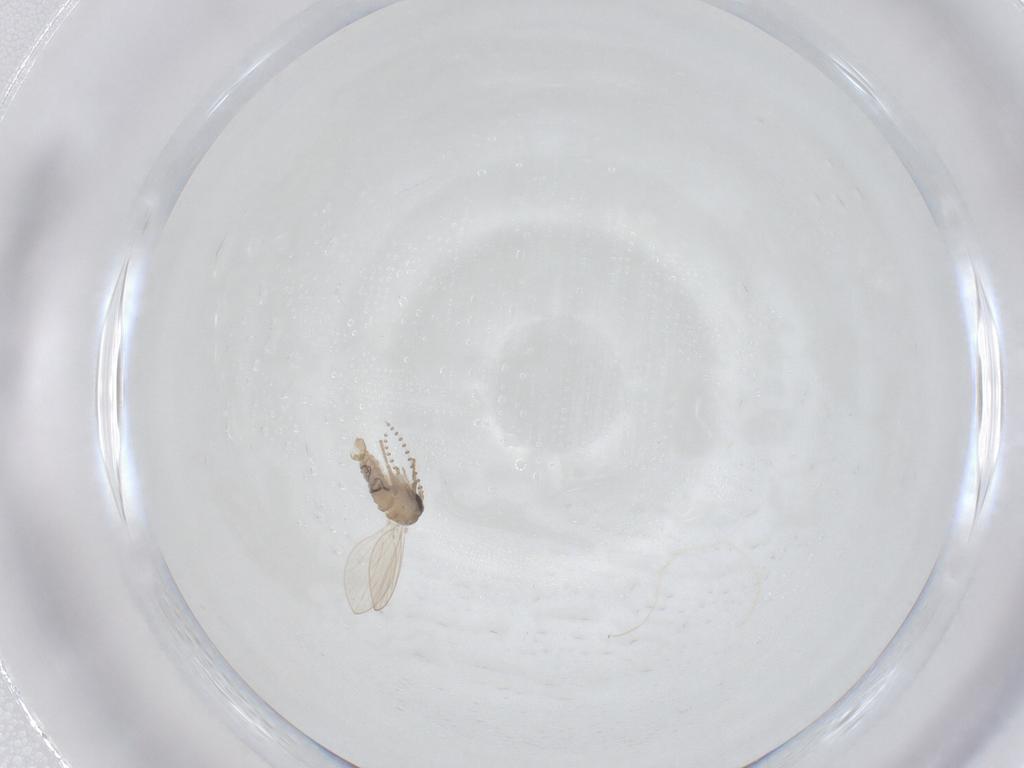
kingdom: Animalia
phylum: Arthropoda
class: Insecta
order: Diptera
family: Psychodidae
